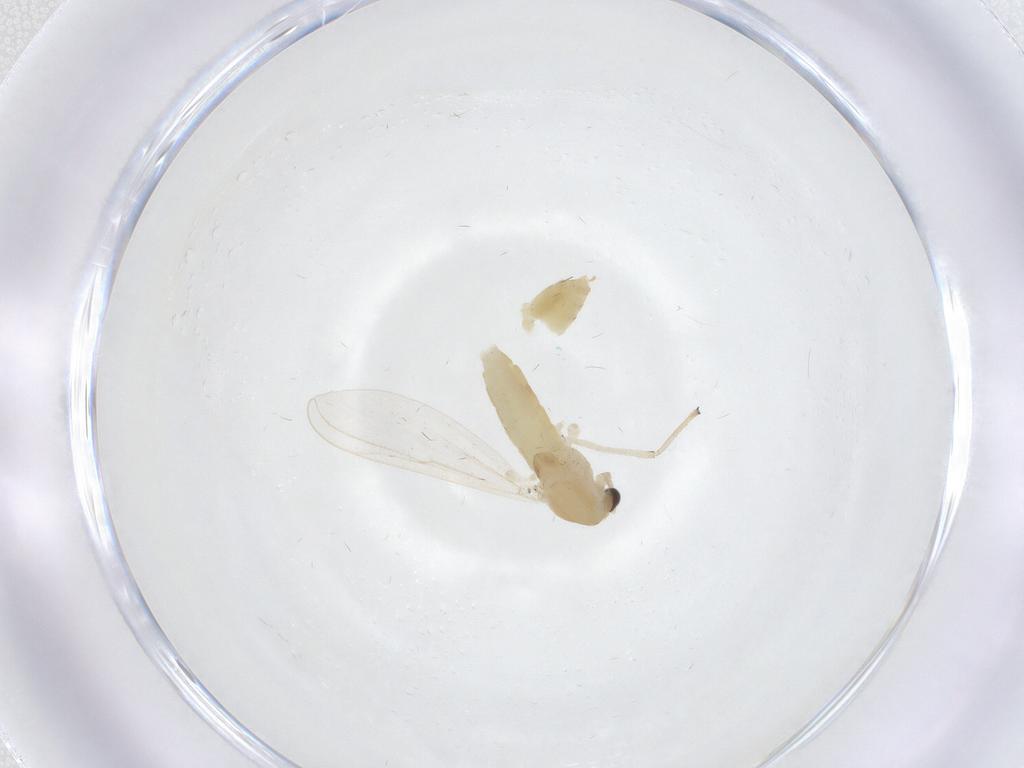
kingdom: Animalia
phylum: Arthropoda
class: Insecta
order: Diptera
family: Chironomidae
